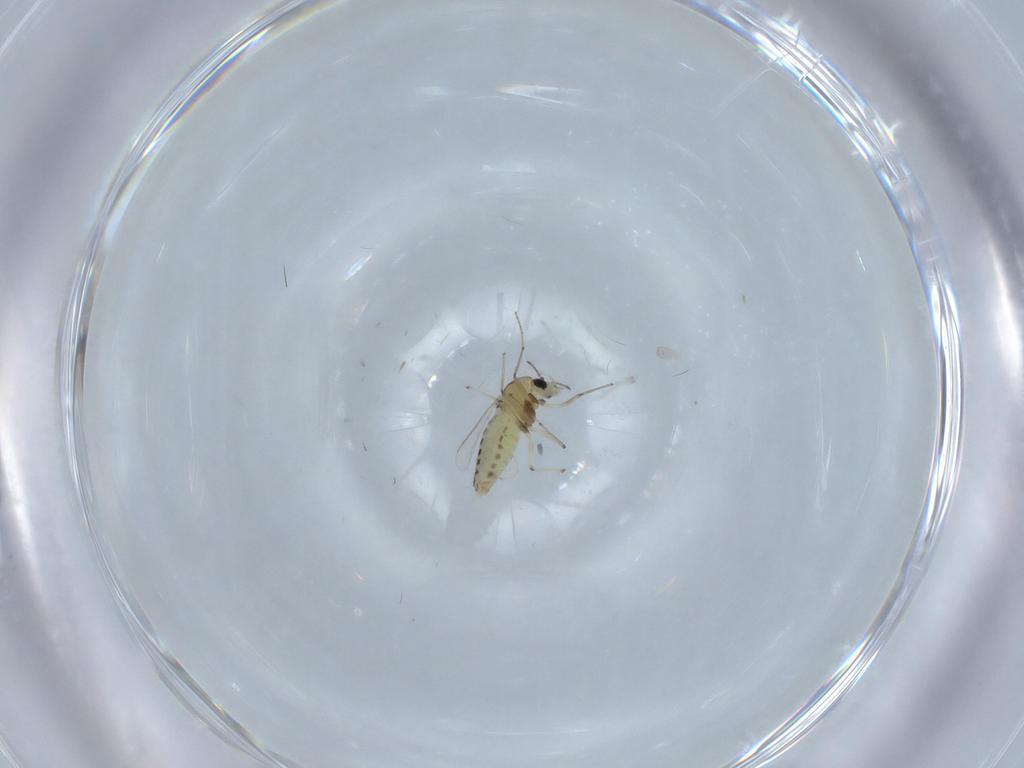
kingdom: Animalia
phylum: Arthropoda
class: Insecta
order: Diptera
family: Chironomidae
